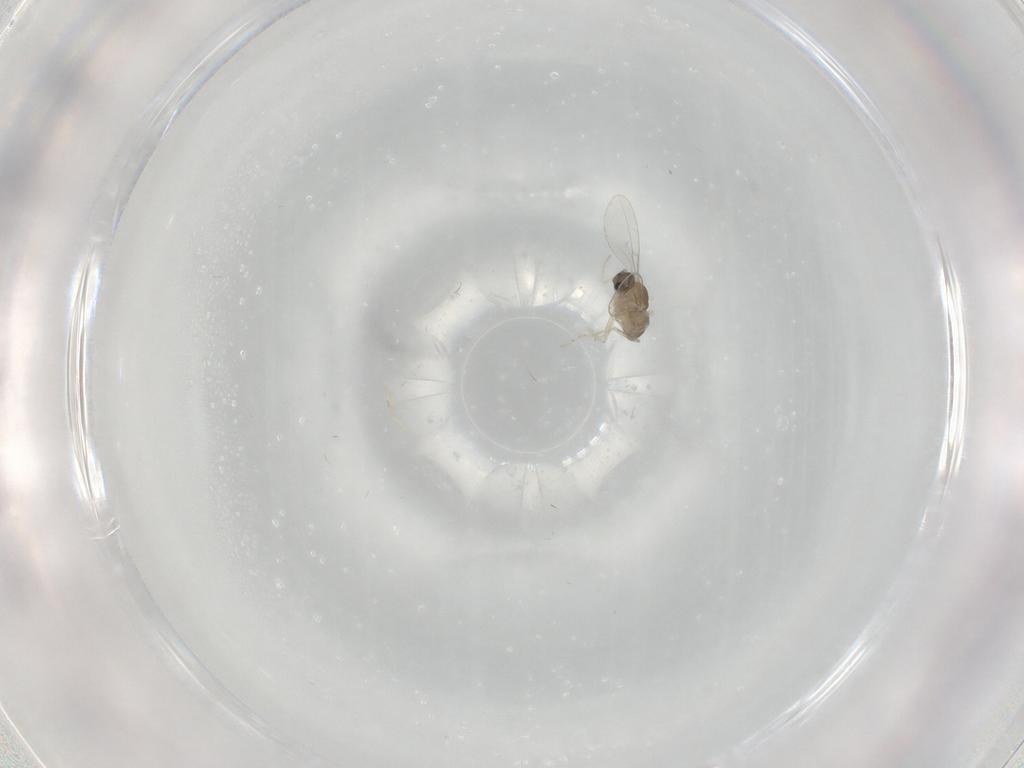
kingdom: Animalia
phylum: Arthropoda
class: Insecta
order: Diptera
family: Cecidomyiidae
